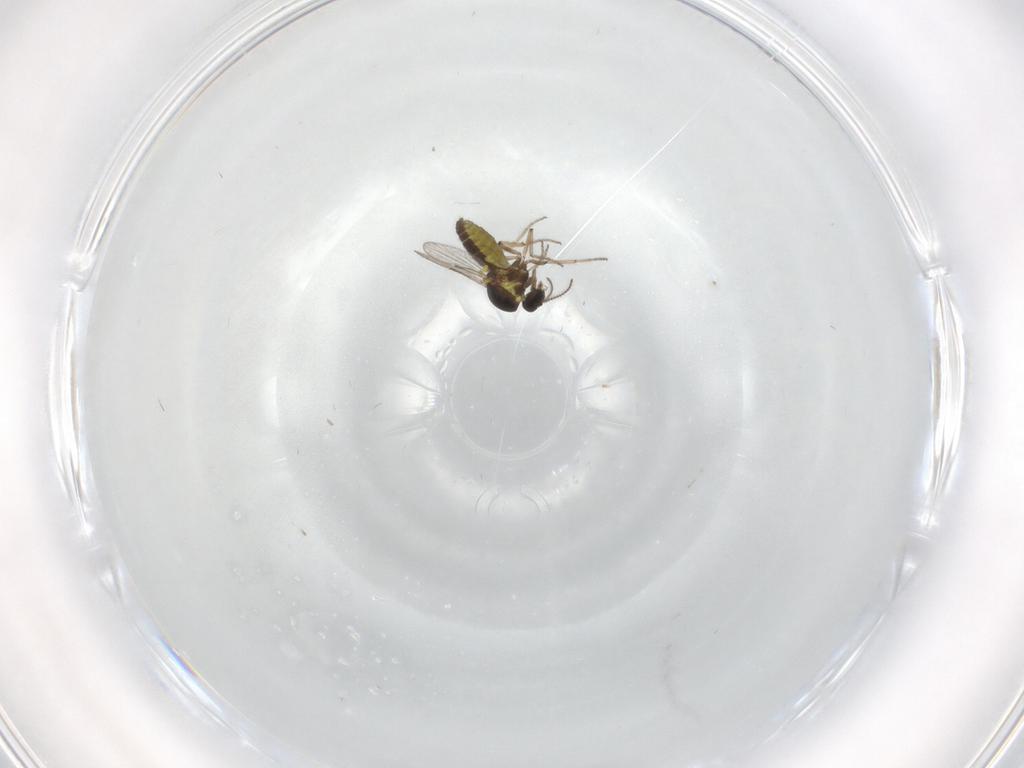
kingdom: Animalia
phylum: Arthropoda
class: Insecta
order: Diptera
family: Ceratopogonidae
